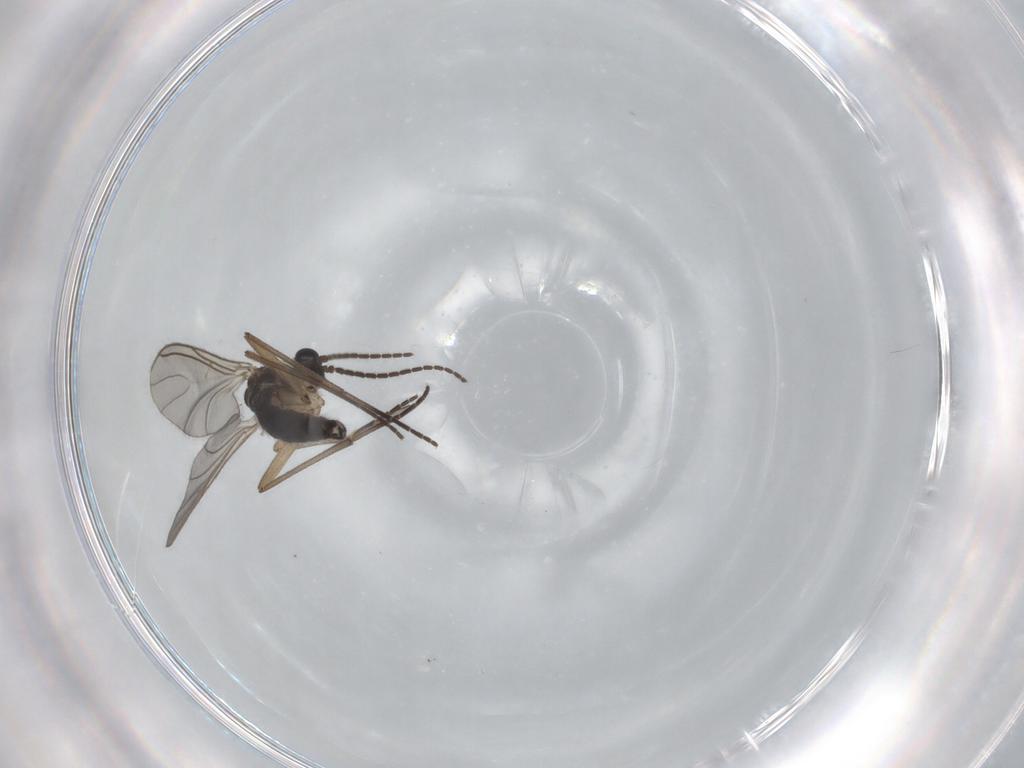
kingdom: Animalia
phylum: Arthropoda
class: Insecta
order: Diptera
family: Sciaridae
